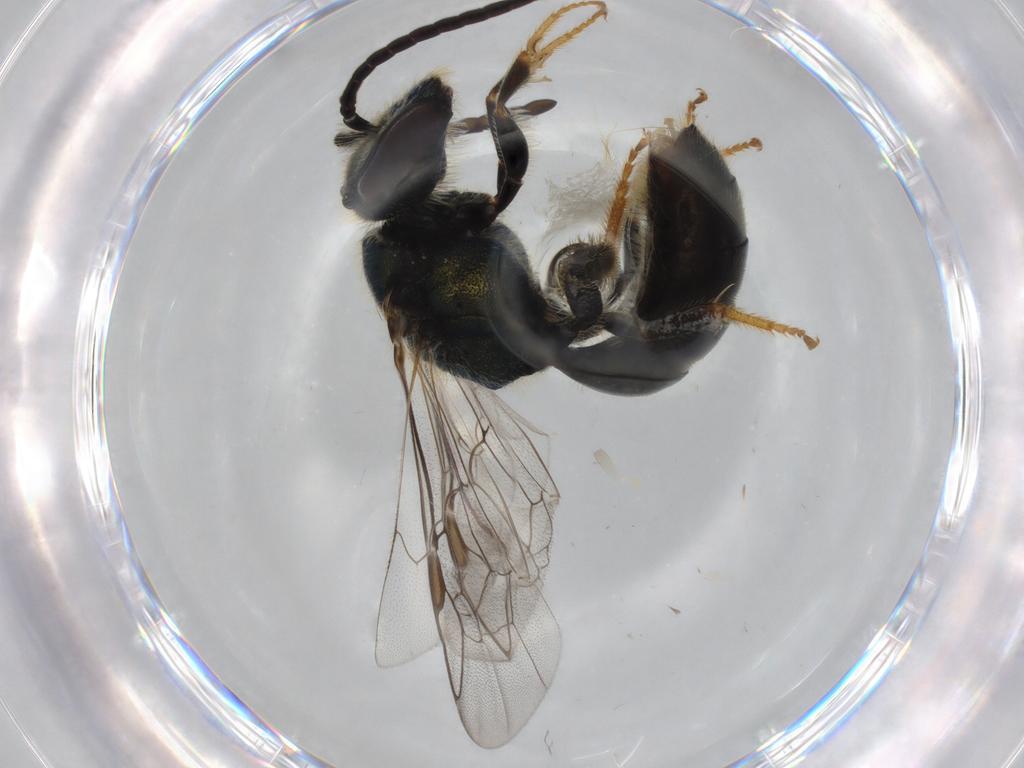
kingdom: Animalia
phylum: Arthropoda
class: Insecta
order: Hymenoptera
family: Halictidae
